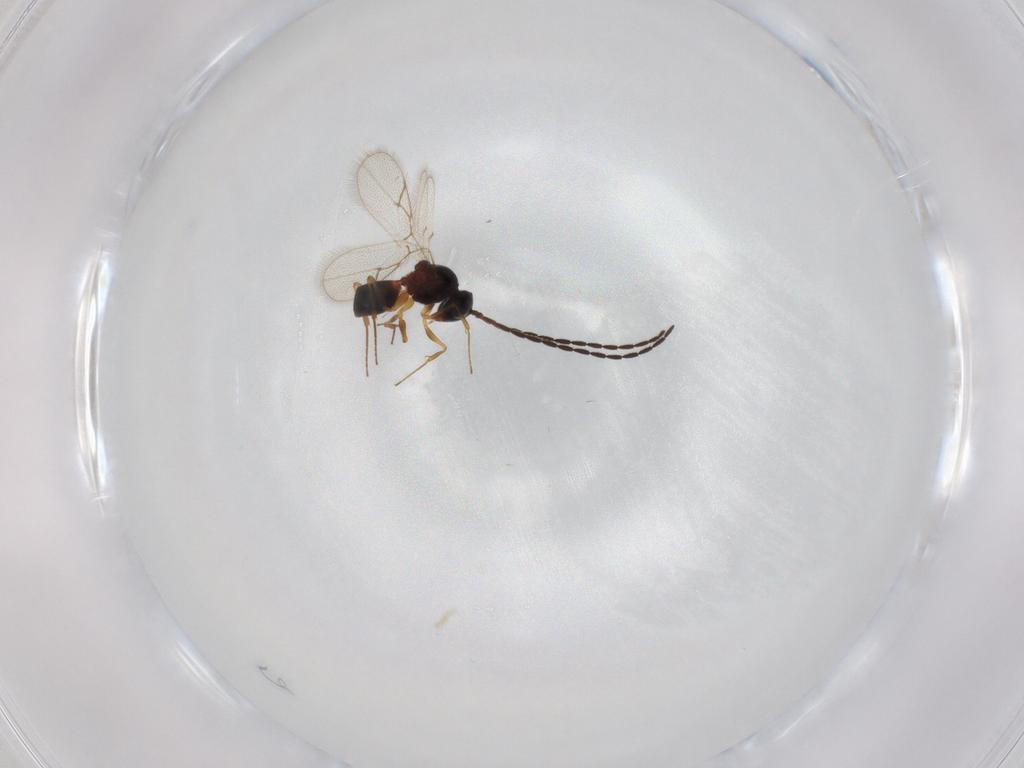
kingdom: Animalia
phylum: Arthropoda
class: Insecta
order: Hymenoptera
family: Figitidae
